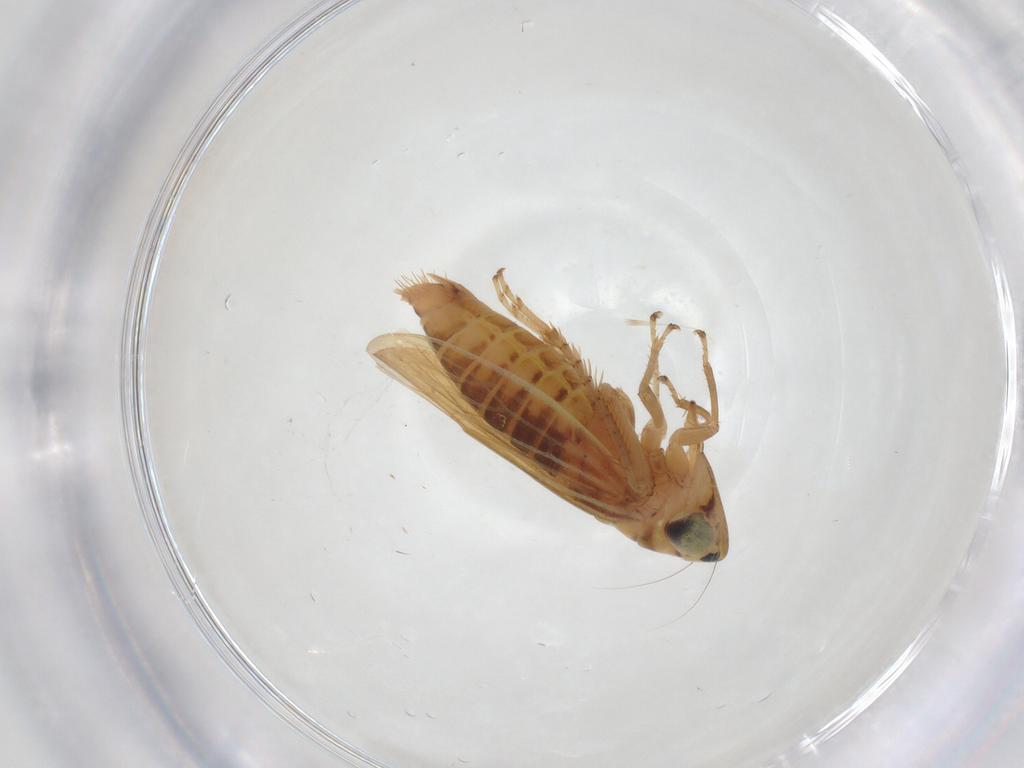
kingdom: Animalia
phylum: Arthropoda
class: Insecta
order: Hemiptera
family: Cicadellidae
